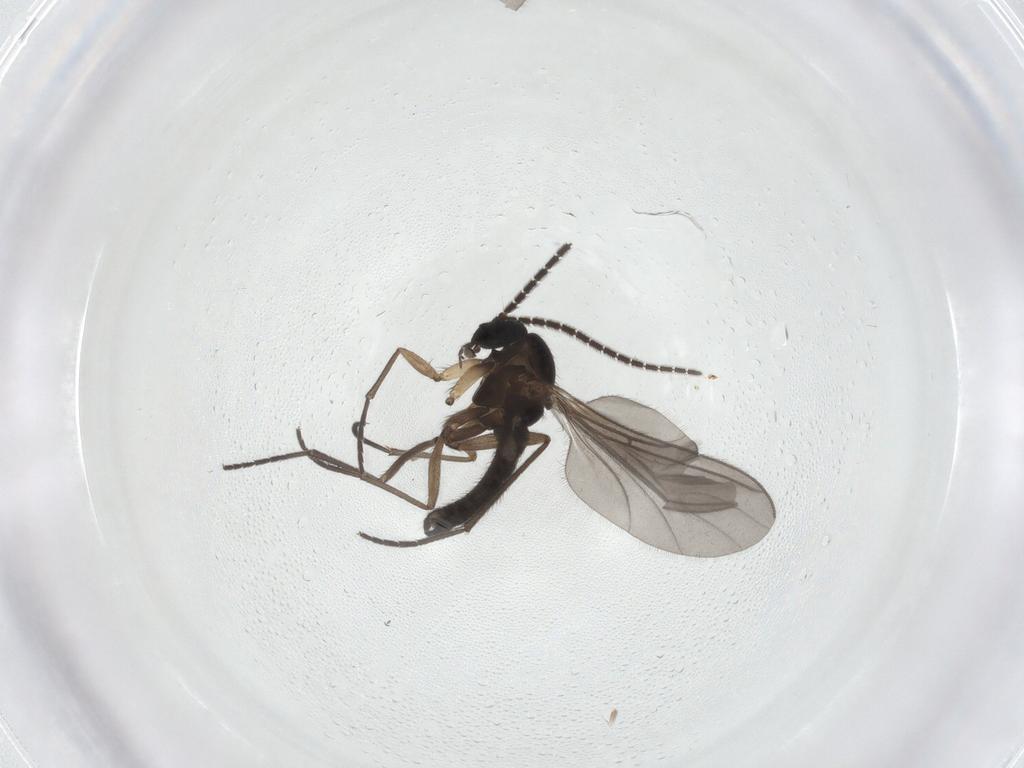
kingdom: Animalia
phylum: Arthropoda
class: Insecta
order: Diptera
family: Sciaridae
